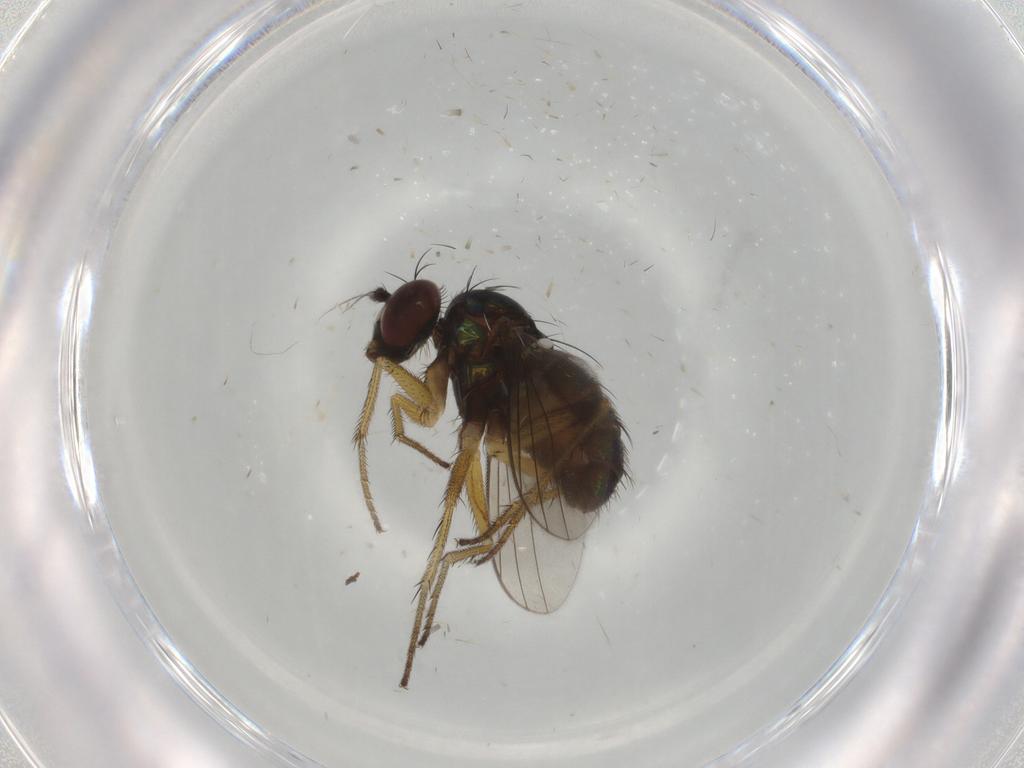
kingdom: Animalia
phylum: Arthropoda
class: Insecta
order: Diptera
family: Dolichopodidae
